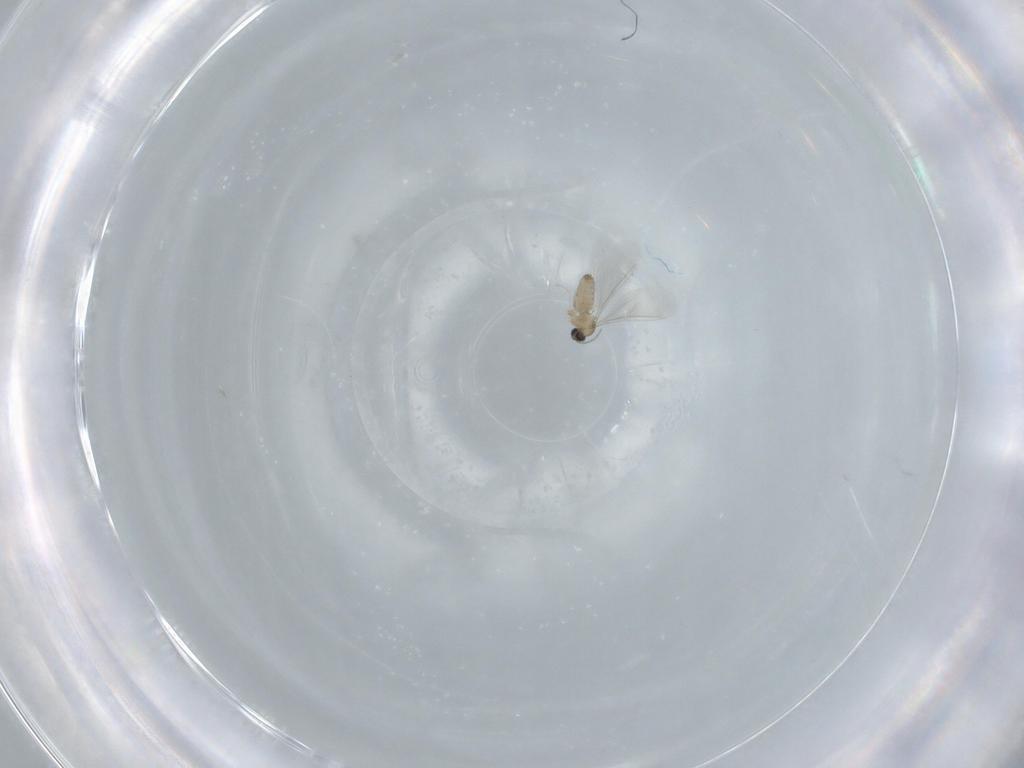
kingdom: Animalia
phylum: Arthropoda
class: Insecta
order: Diptera
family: Cecidomyiidae
